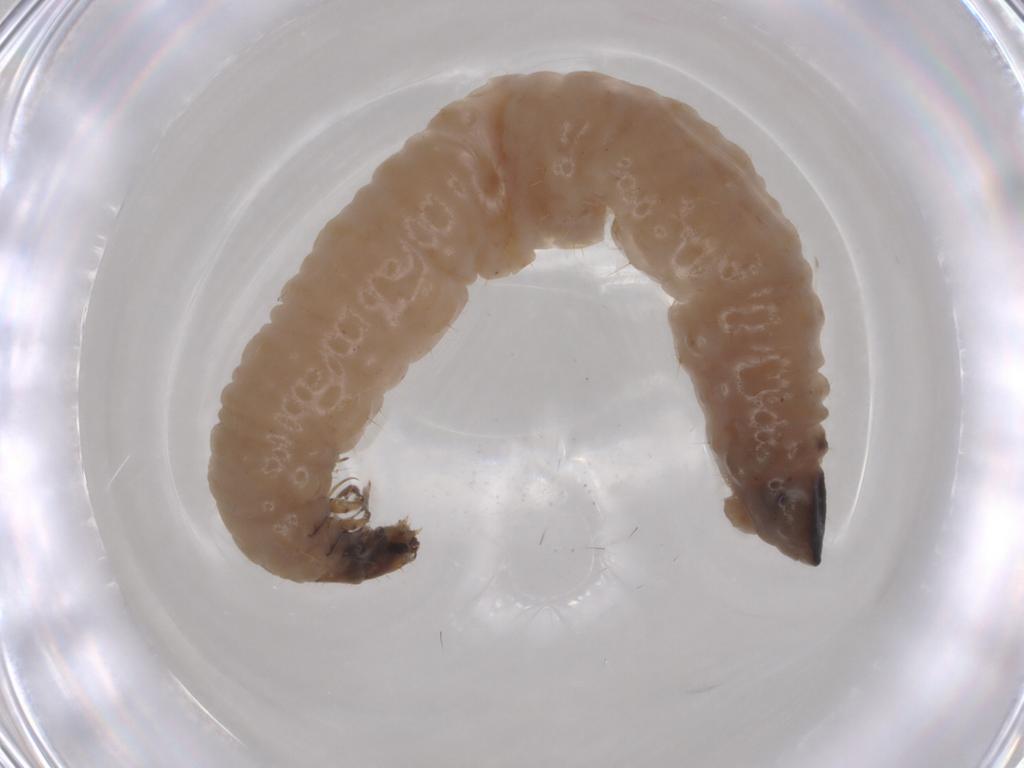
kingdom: Animalia
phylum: Arthropoda
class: Insecta
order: Coleoptera
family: Chrysomelidae
